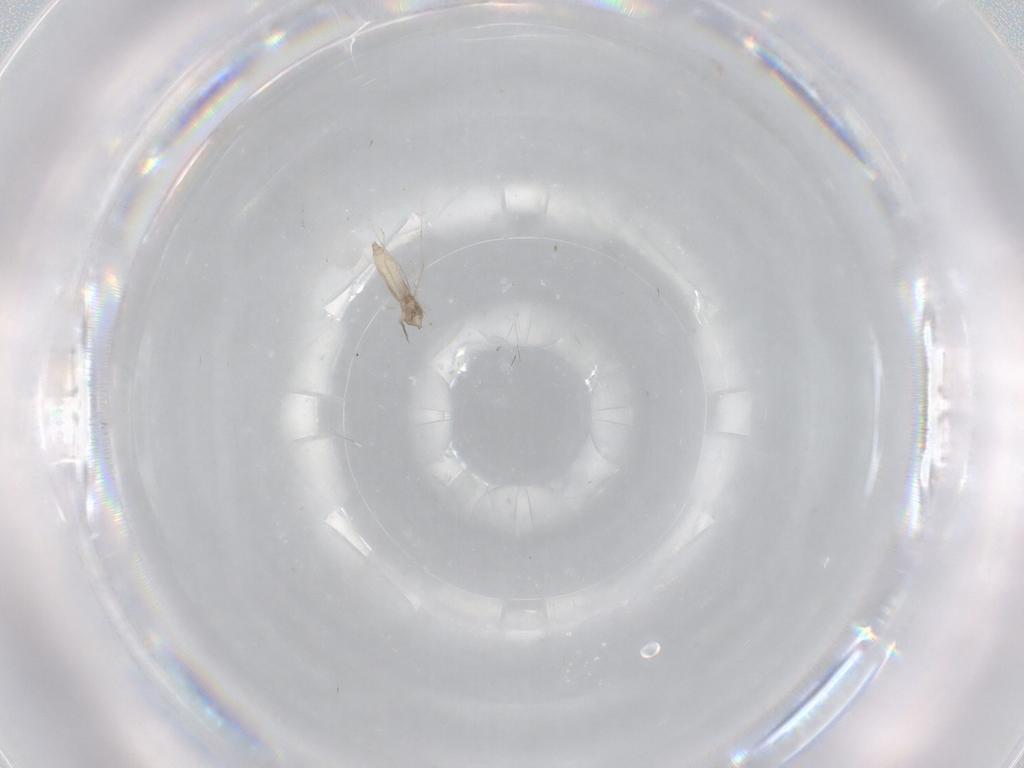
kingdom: Animalia
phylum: Arthropoda
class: Insecta
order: Diptera
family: Cecidomyiidae
